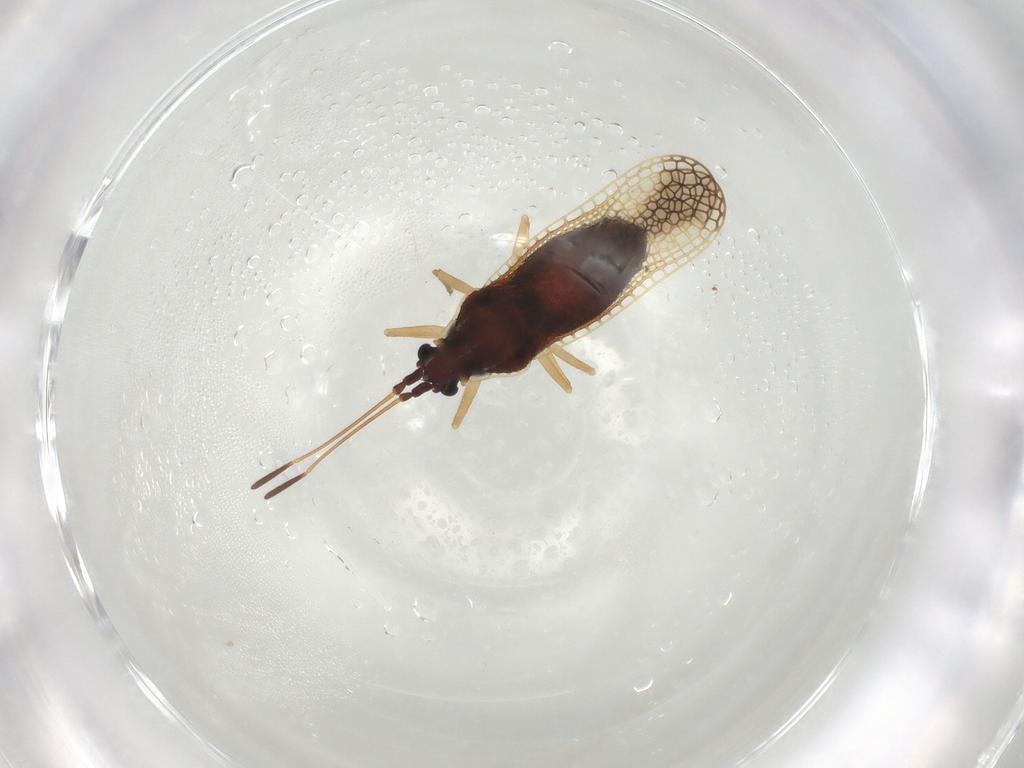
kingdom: Animalia
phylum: Arthropoda
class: Insecta
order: Hemiptera
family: Tingidae
